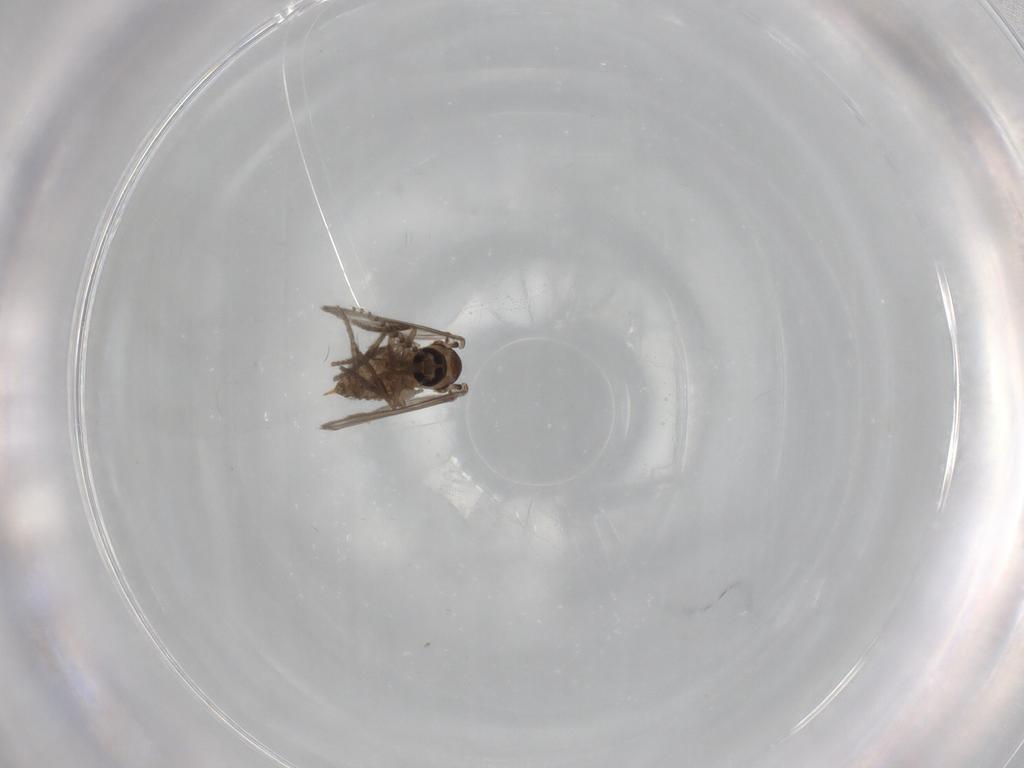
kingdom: Animalia
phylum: Arthropoda
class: Insecta
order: Diptera
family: Psychodidae
